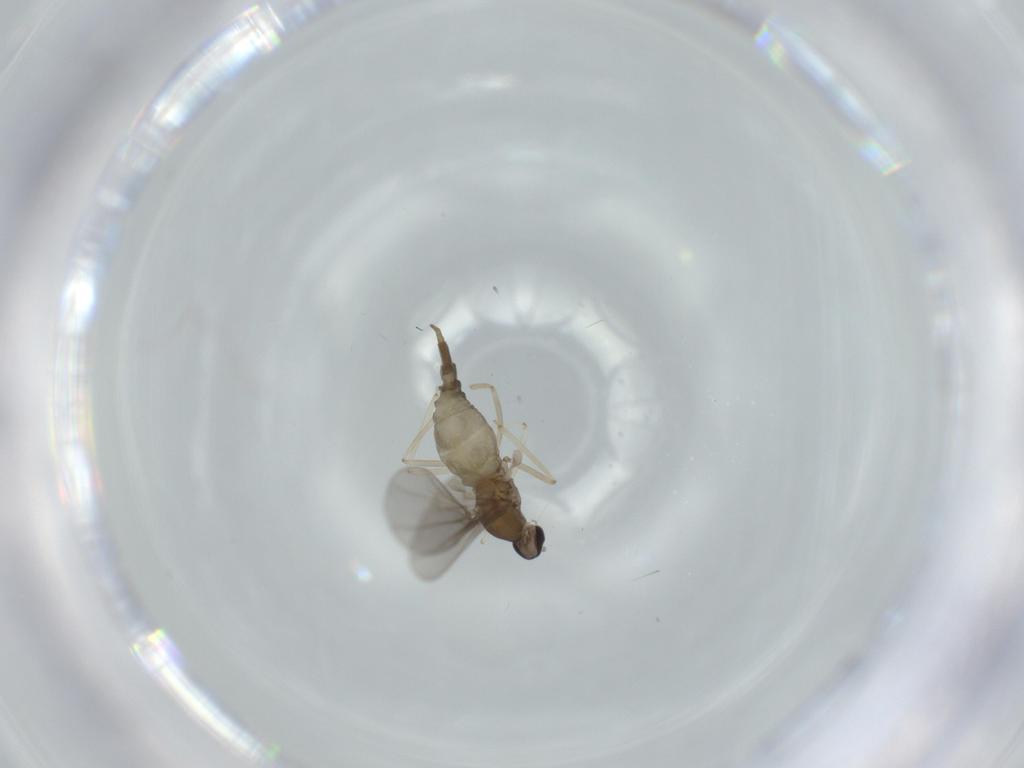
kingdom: Animalia
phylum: Arthropoda
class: Insecta
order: Diptera
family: Cecidomyiidae
